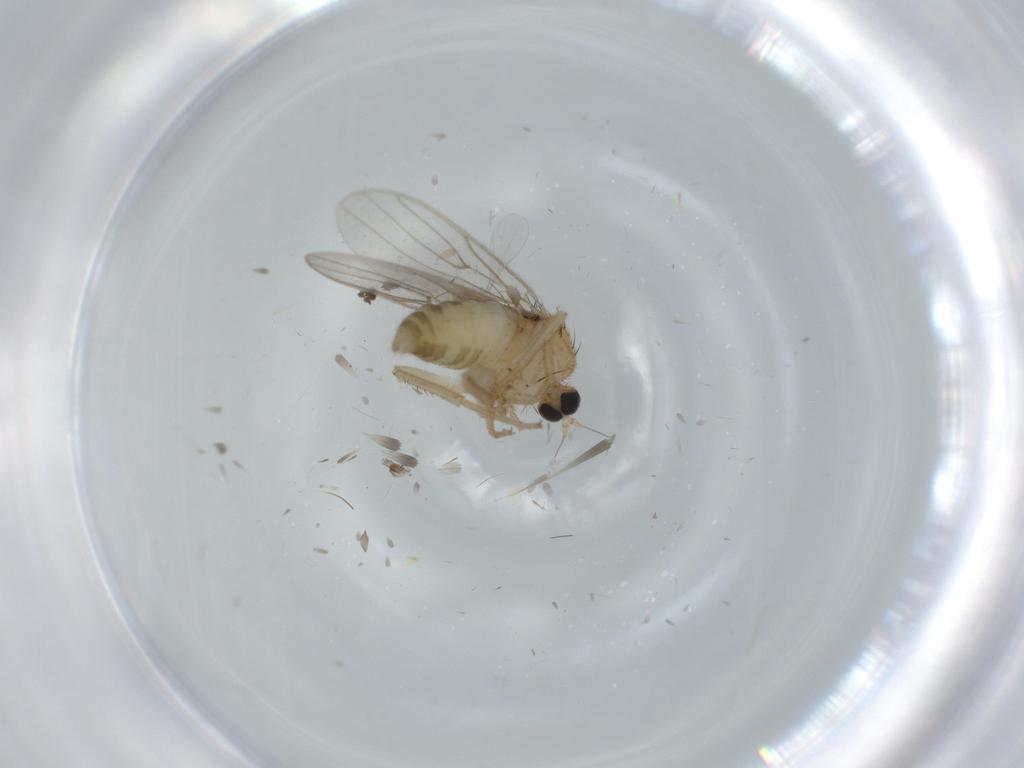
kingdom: Animalia
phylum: Arthropoda
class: Insecta
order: Diptera
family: Hybotidae
